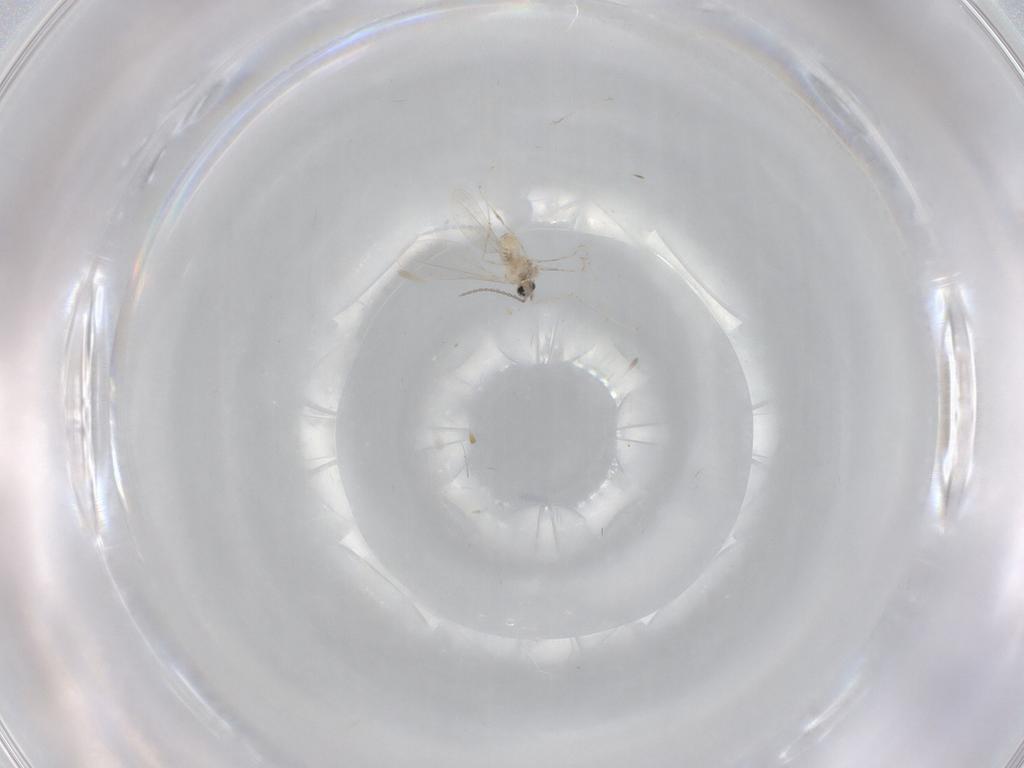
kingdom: Animalia
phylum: Arthropoda
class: Insecta
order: Diptera
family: Cecidomyiidae
